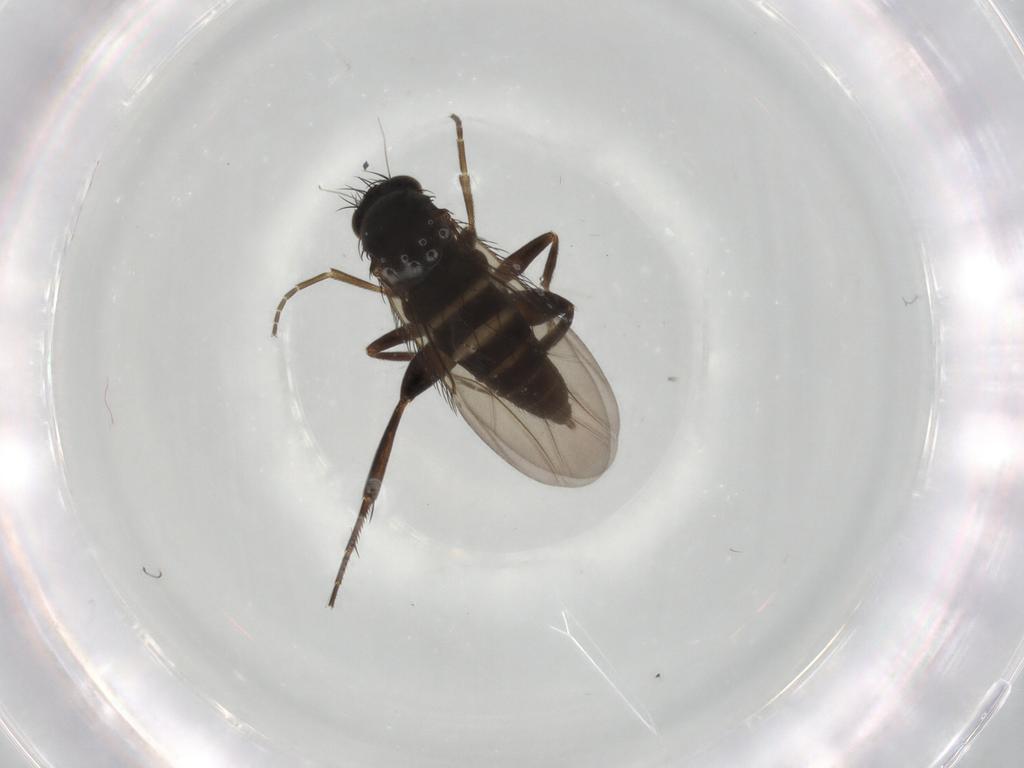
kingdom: Animalia
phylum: Arthropoda
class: Insecta
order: Diptera
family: Phoridae
